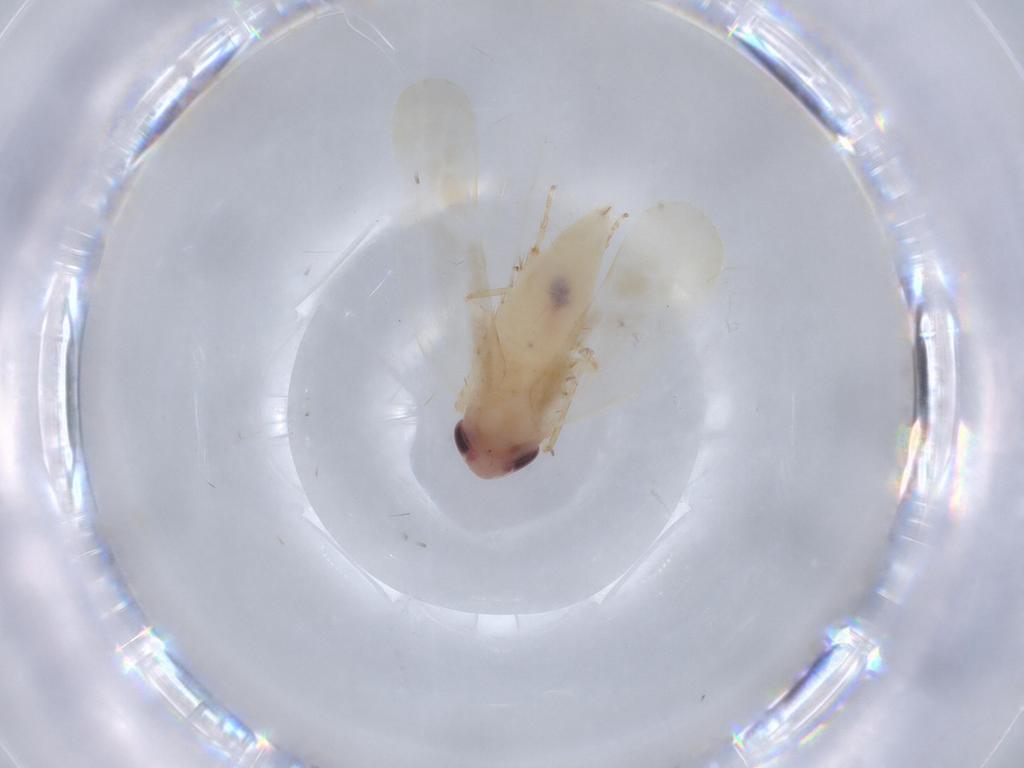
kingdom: Animalia
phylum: Arthropoda
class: Insecta
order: Hemiptera
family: Cicadellidae
